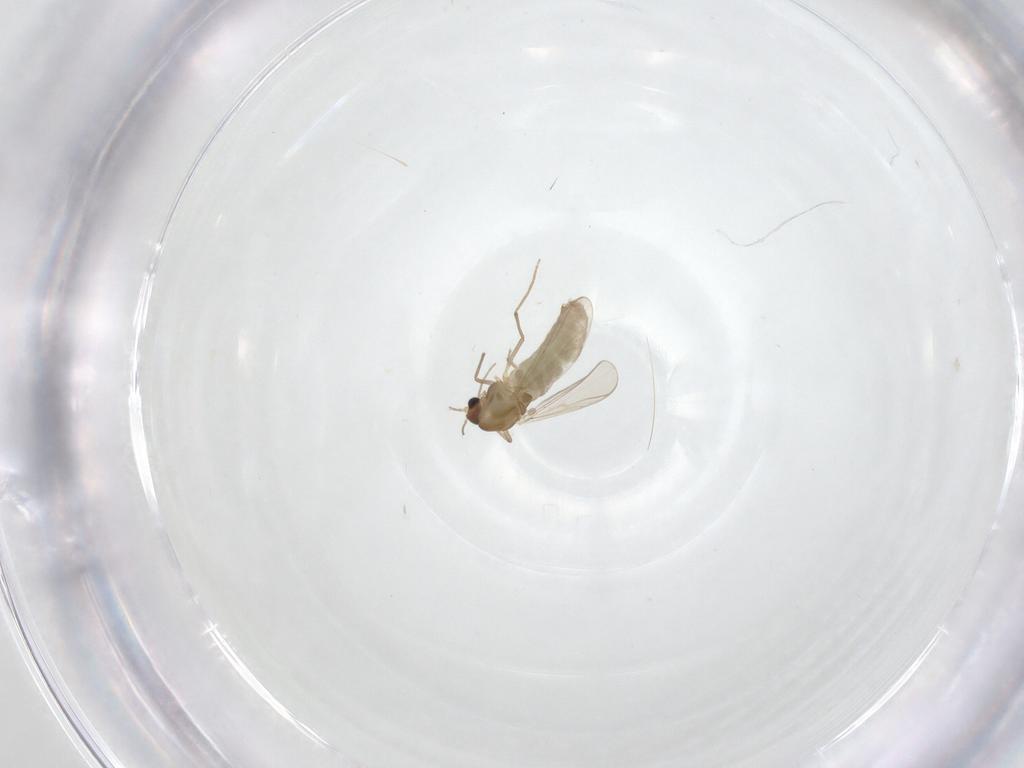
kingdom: Animalia
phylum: Arthropoda
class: Insecta
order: Diptera
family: Chironomidae
